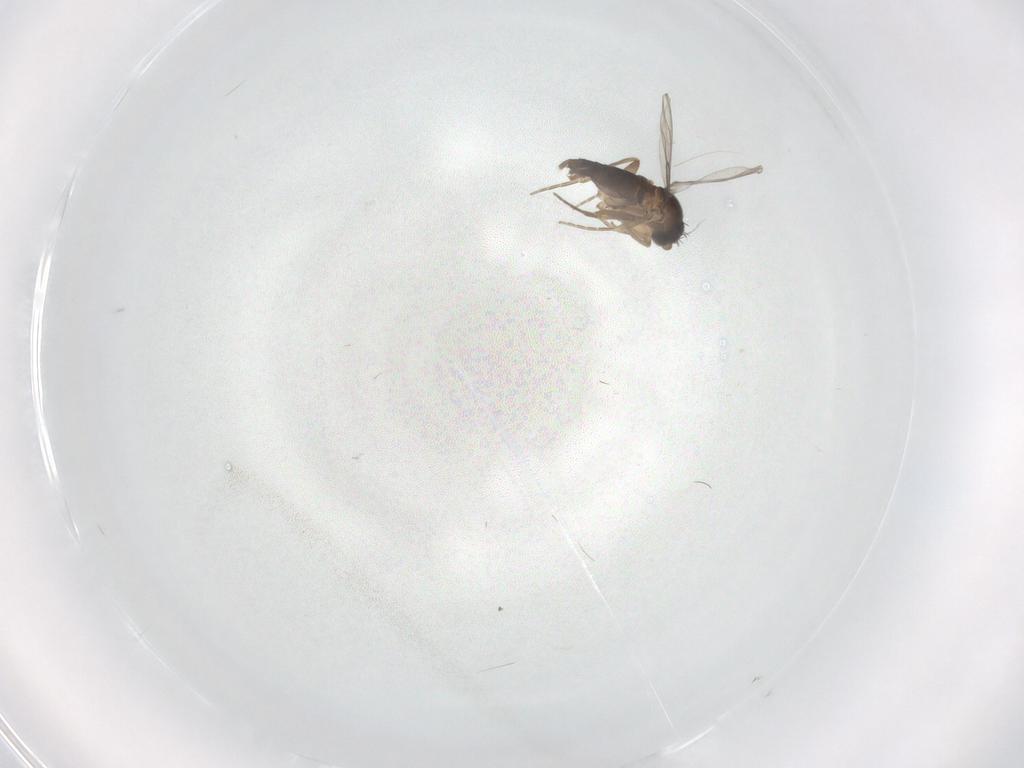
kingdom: Animalia
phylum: Arthropoda
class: Insecta
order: Diptera
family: Phoridae
